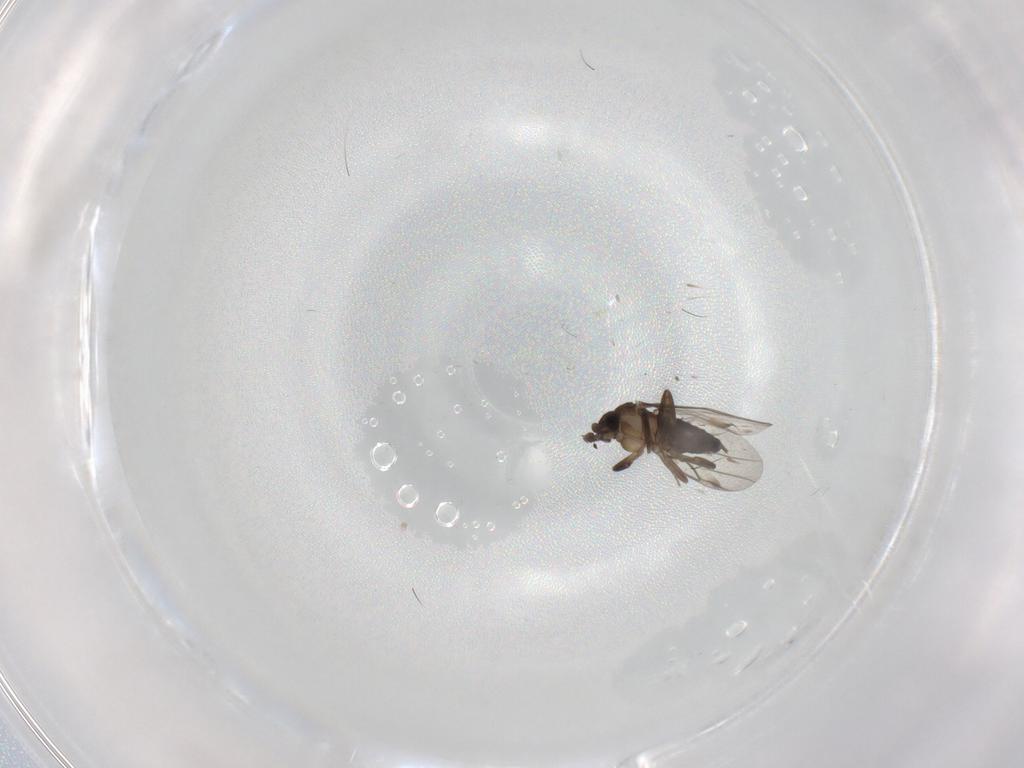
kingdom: Animalia
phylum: Arthropoda
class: Insecta
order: Diptera
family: Phoridae
